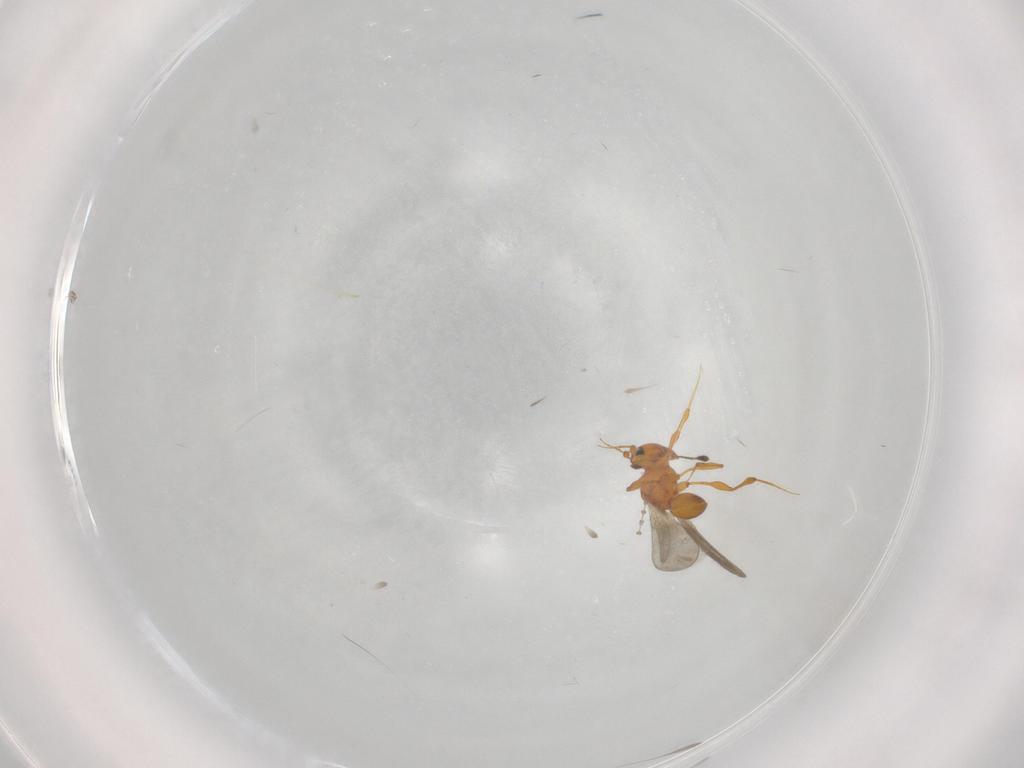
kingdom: Animalia
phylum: Arthropoda
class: Insecta
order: Hymenoptera
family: Platygastridae
